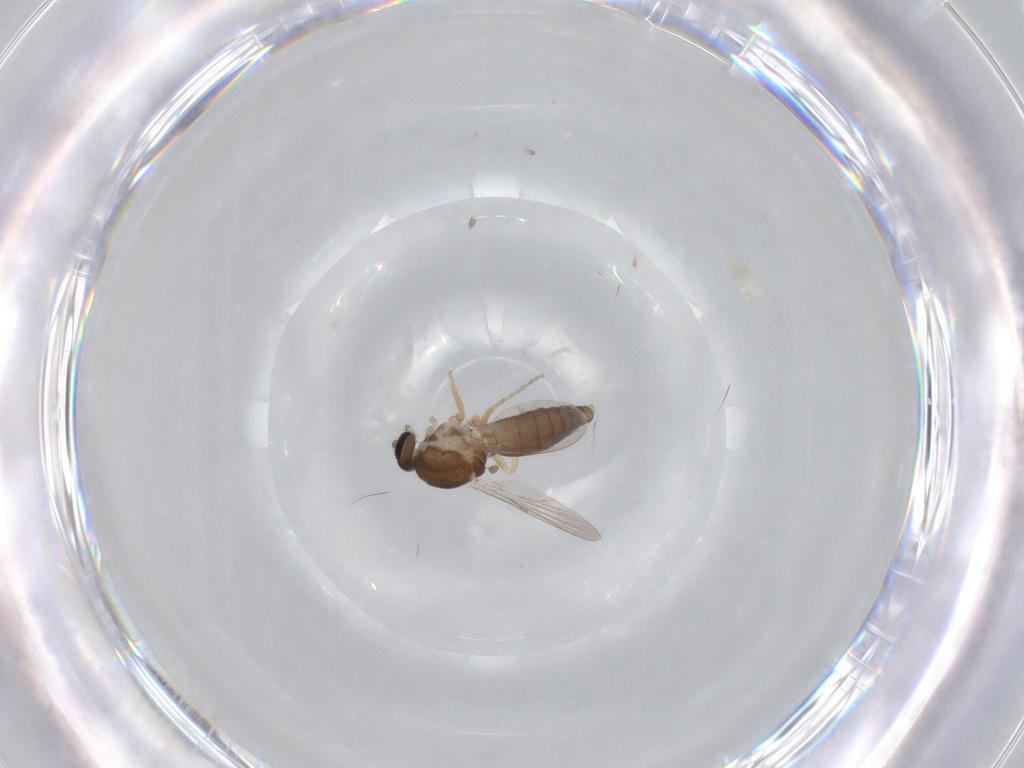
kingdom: Animalia
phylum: Arthropoda
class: Insecta
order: Diptera
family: Ceratopogonidae
